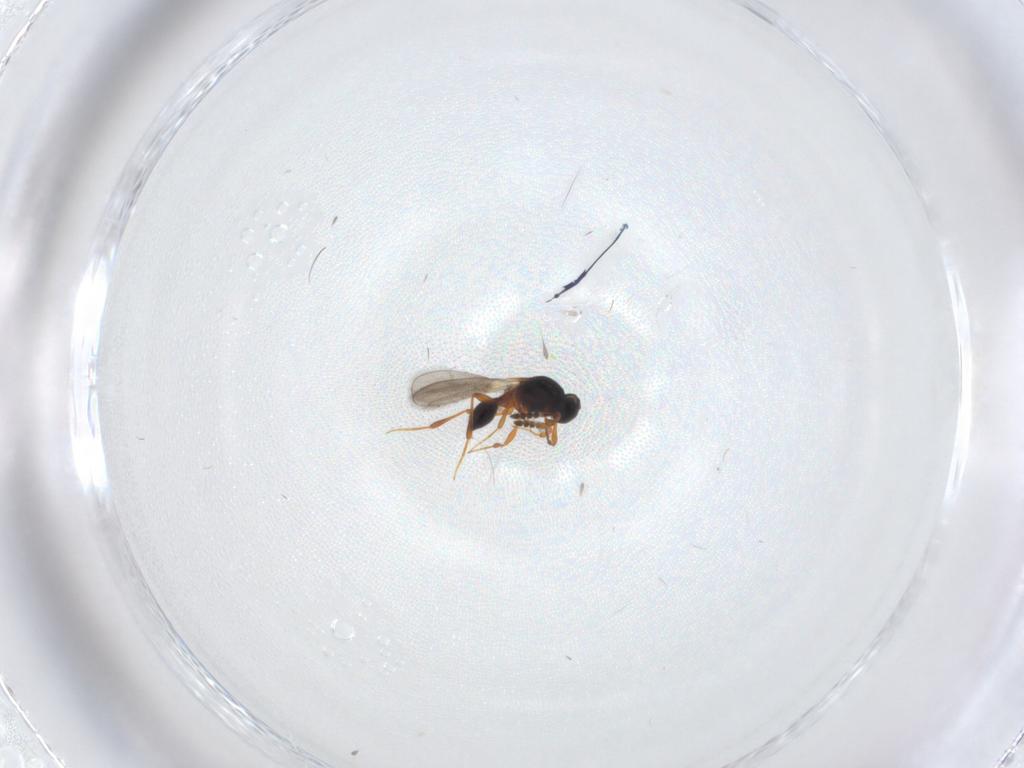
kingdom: Animalia
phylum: Arthropoda
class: Insecta
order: Hymenoptera
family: Platygastridae
